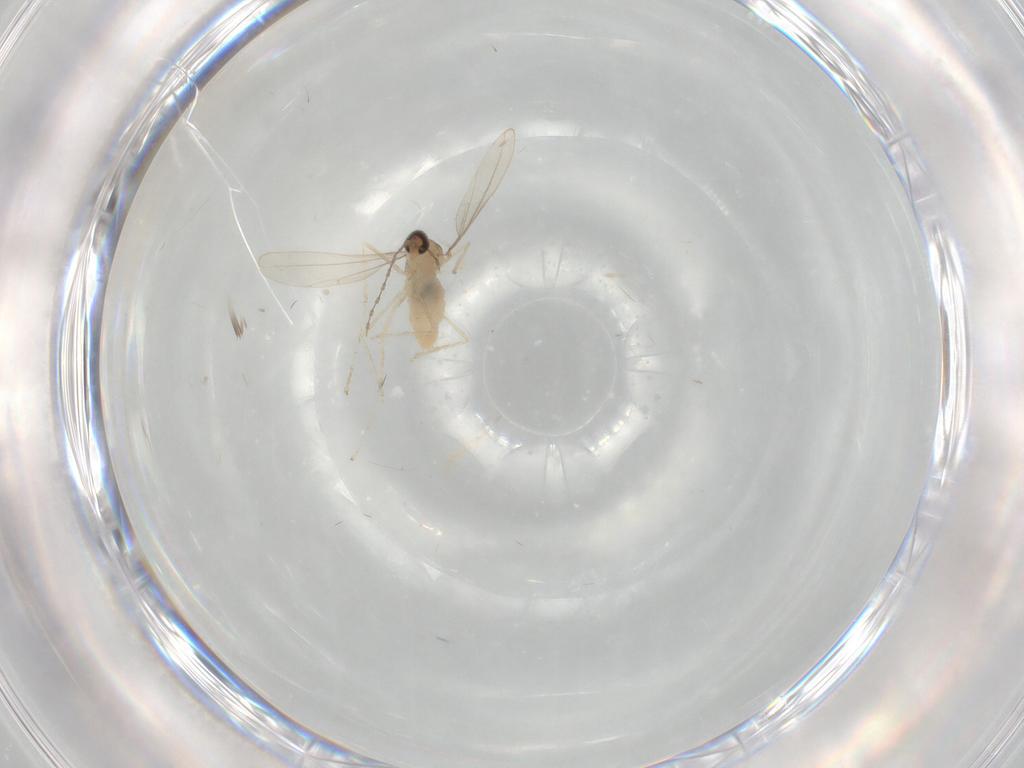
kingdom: Animalia
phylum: Arthropoda
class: Insecta
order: Diptera
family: Cecidomyiidae
